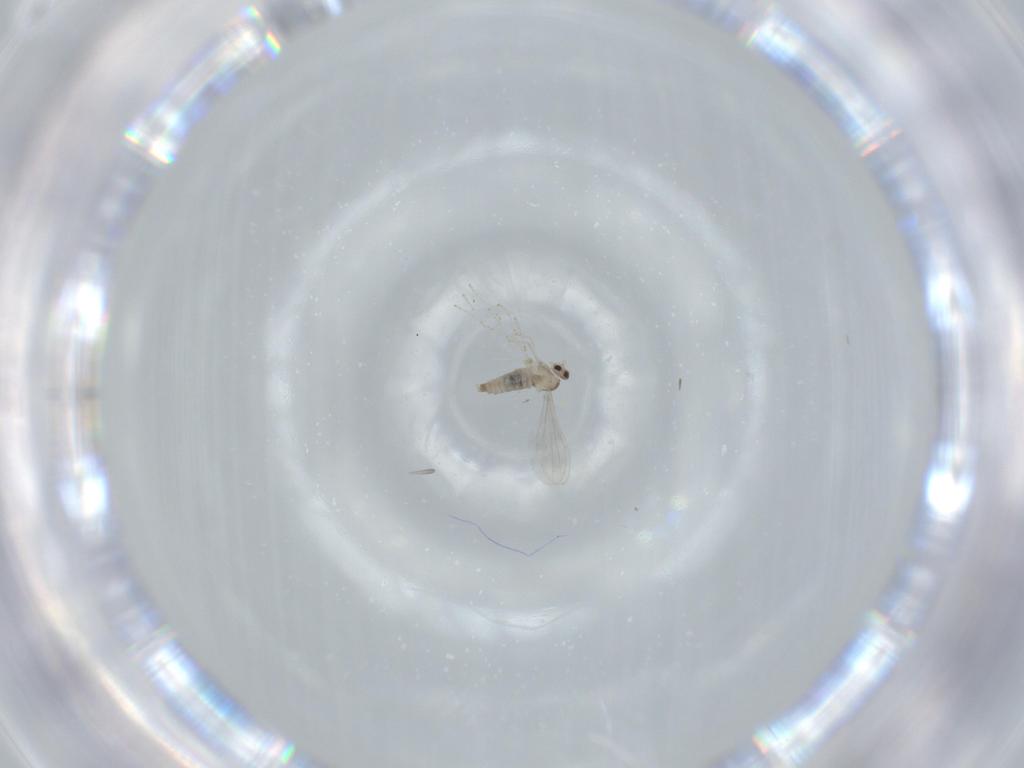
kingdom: Animalia
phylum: Arthropoda
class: Insecta
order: Diptera
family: Cecidomyiidae
